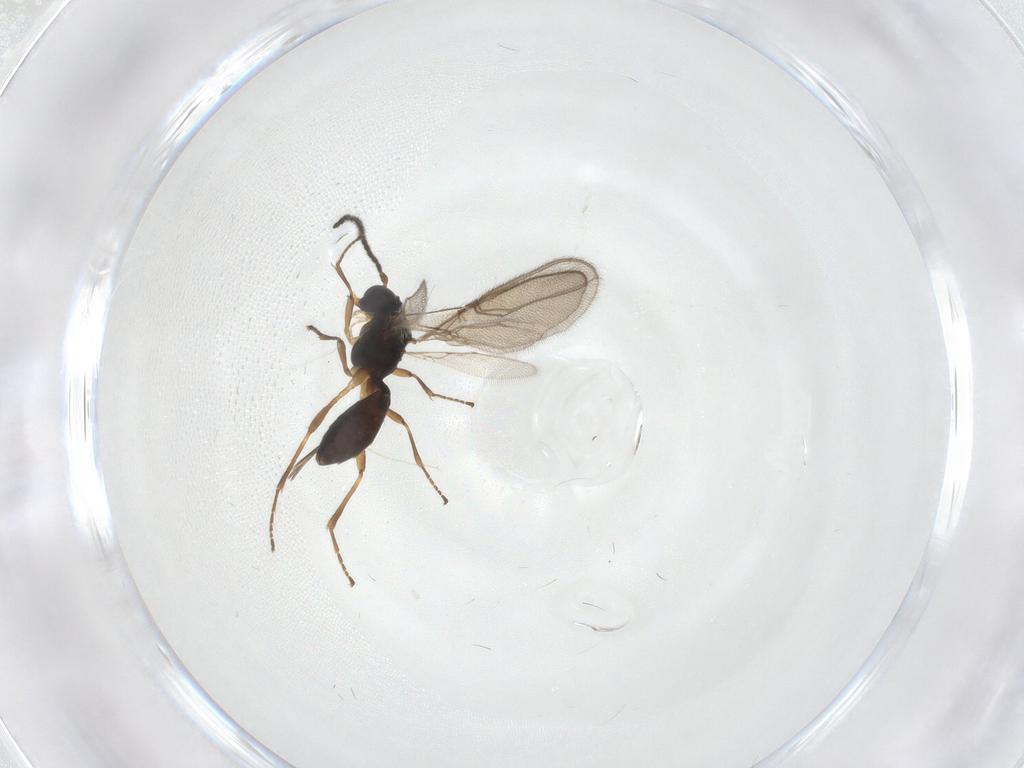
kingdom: Animalia
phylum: Arthropoda
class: Insecta
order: Hymenoptera
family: Braconidae
